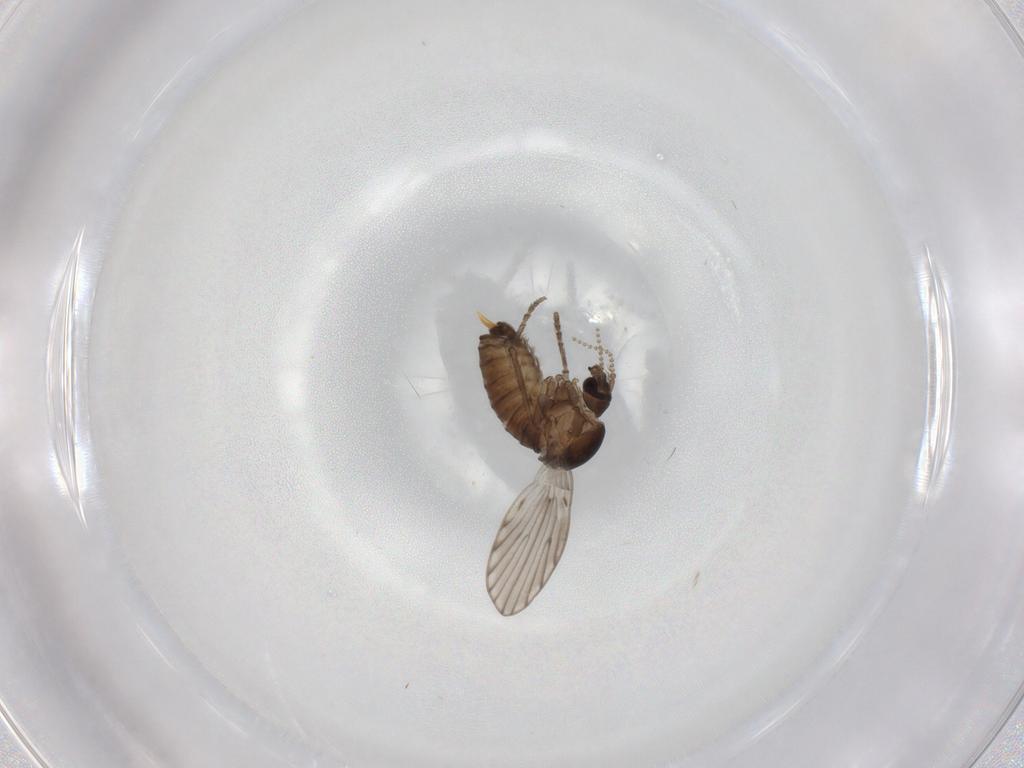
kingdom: Animalia
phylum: Arthropoda
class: Insecta
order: Diptera
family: Psychodidae
